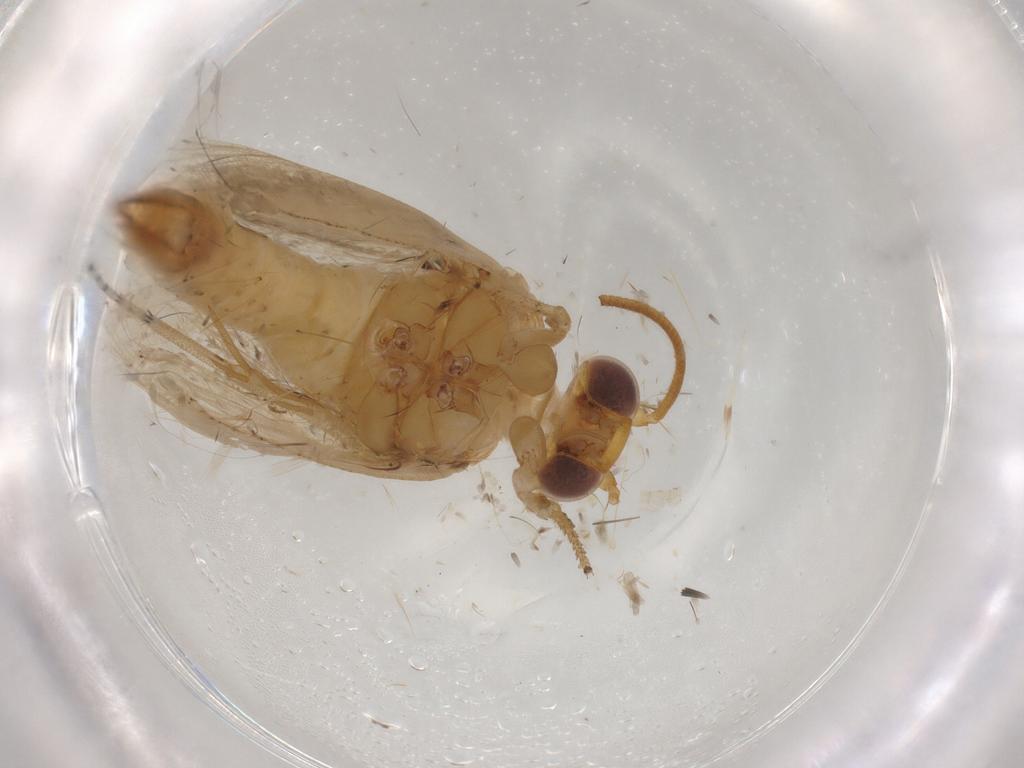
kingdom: Animalia
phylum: Arthropoda
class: Insecta
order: Lepidoptera
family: Tortricidae
